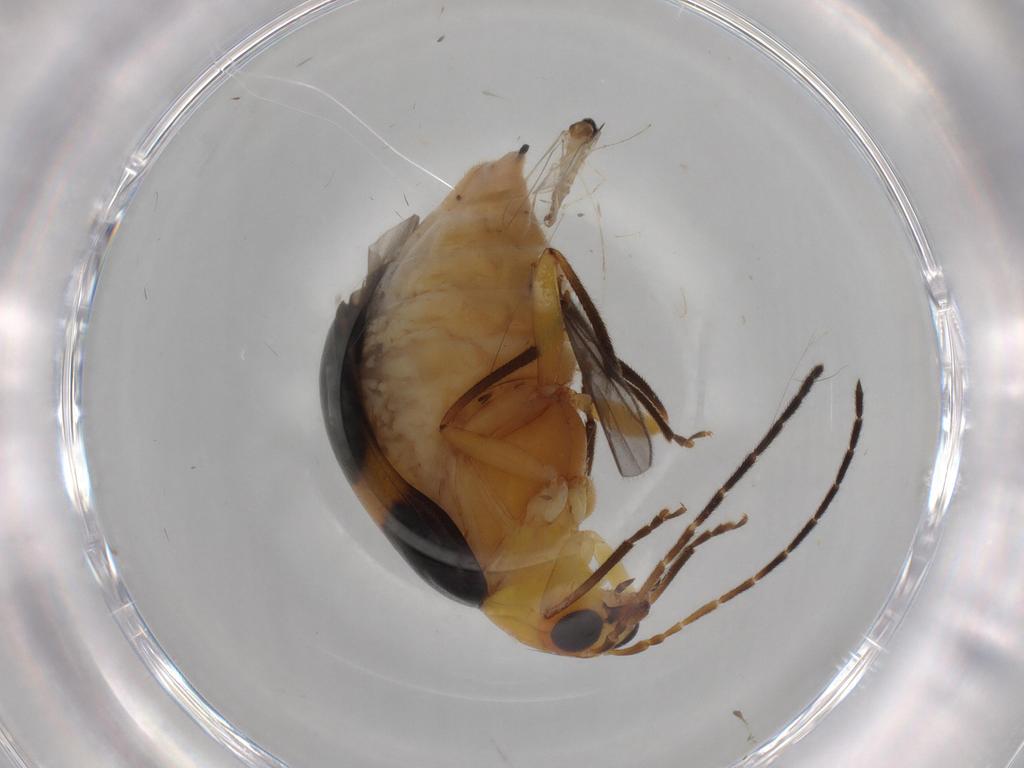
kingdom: Animalia
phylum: Arthropoda
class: Insecta
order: Coleoptera
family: Chrysomelidae
